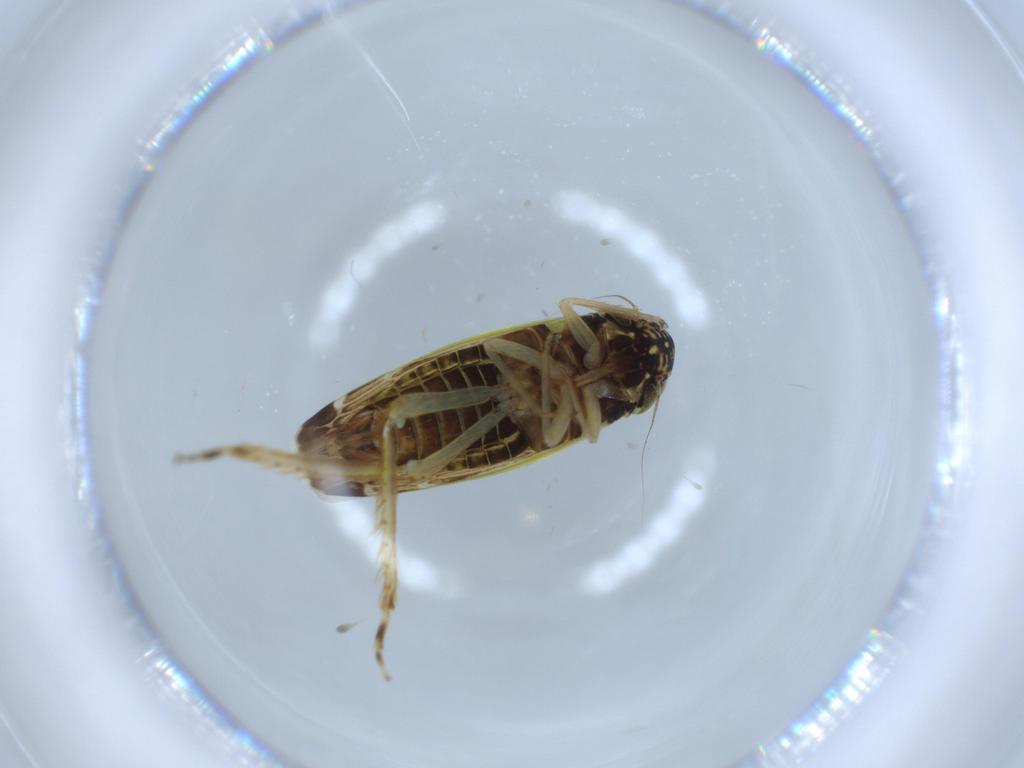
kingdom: Animalia
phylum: Arthropoda
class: Insecta
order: Hemiptera
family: Cicadellidae
